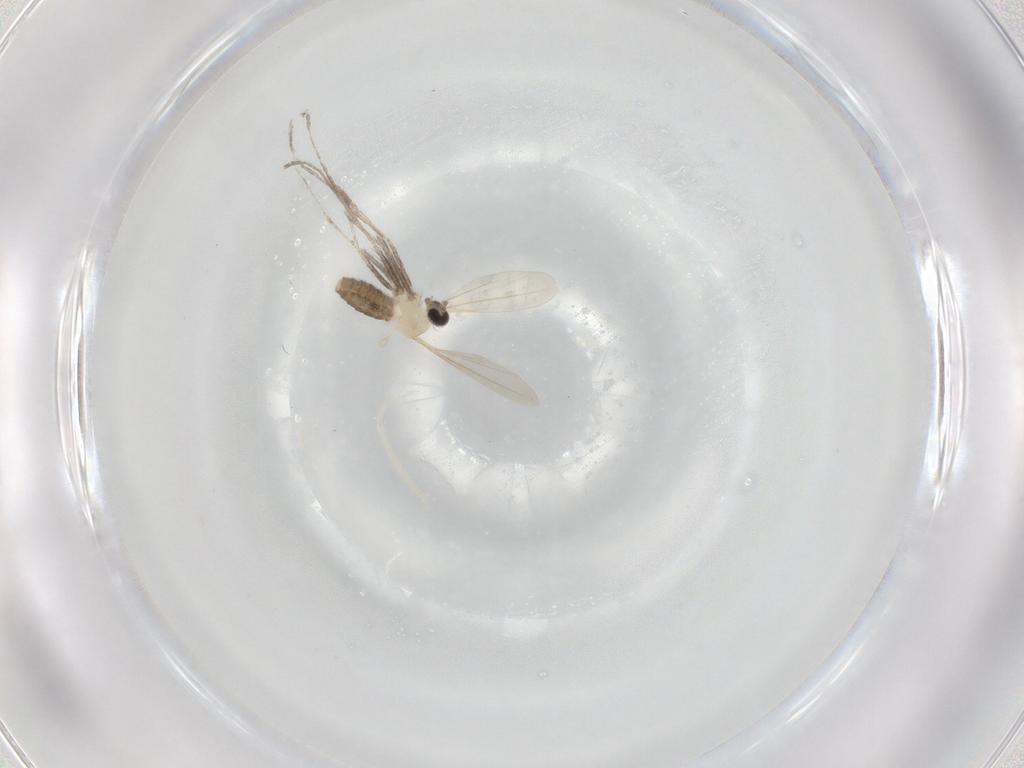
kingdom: Animalia
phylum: Arthropoda
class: Insecta
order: Diptera
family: Cecidomyiidae
